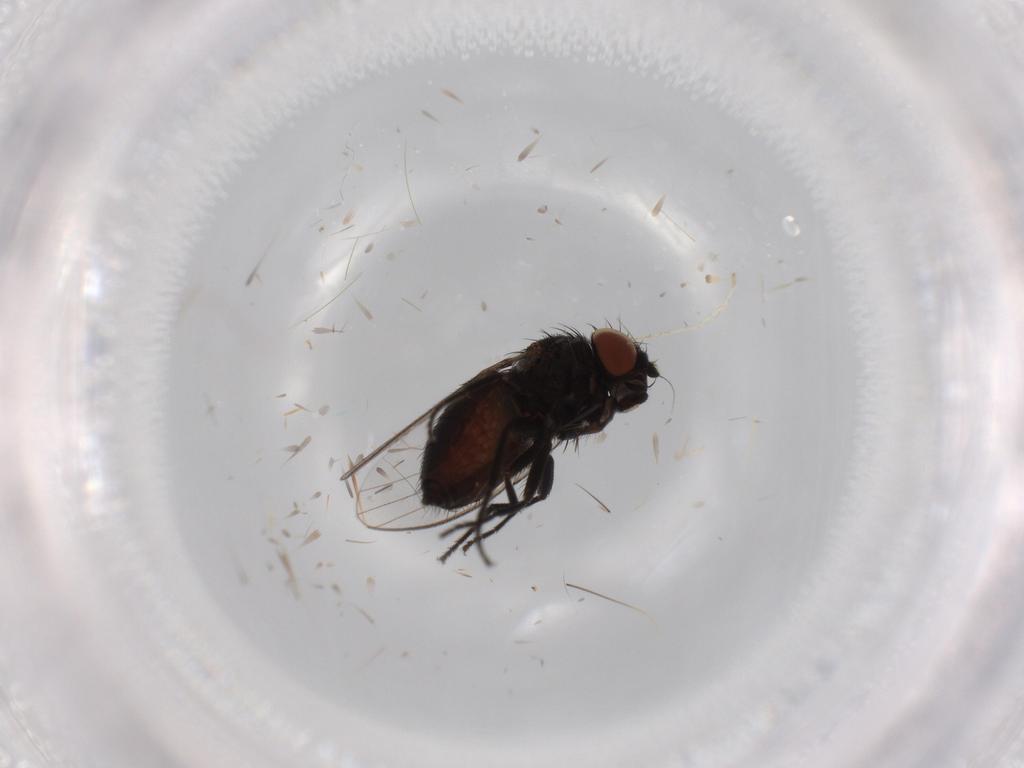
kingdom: Animalia
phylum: Arthropoda
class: Insecta
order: Diptera
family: Milichiidae
